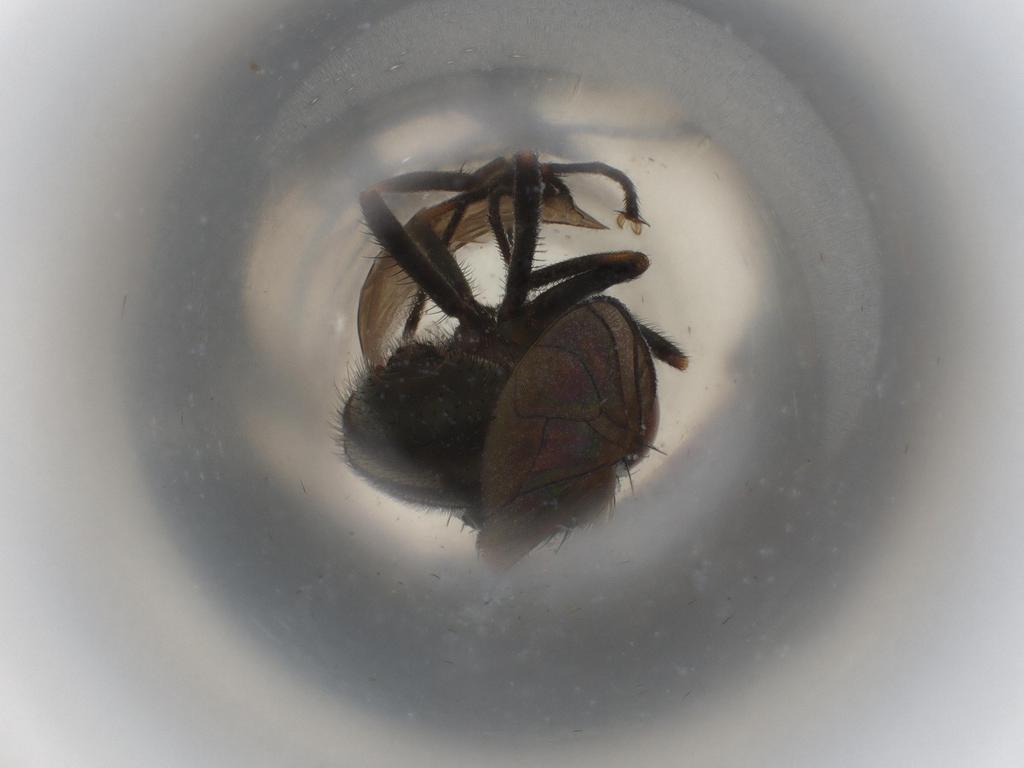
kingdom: Animalia
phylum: Arthropoda
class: Insecta
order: Diptera
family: Muscidae
